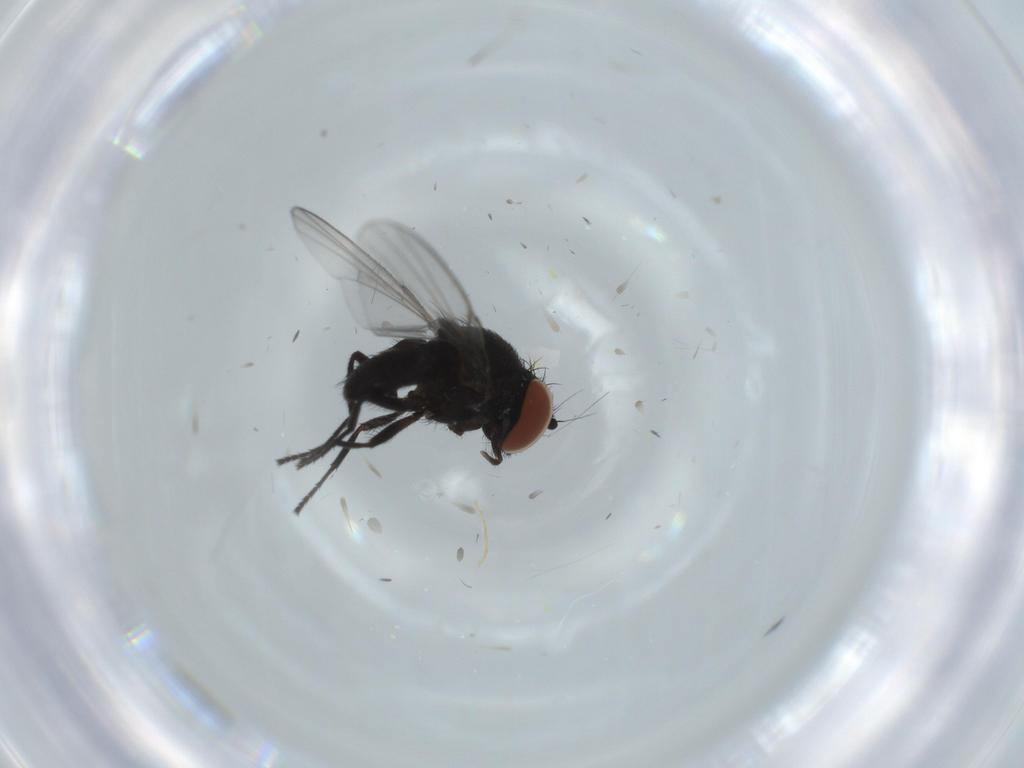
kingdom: Animalia
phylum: Arthropoda
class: Insecta
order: Diptera
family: Milichiidae
